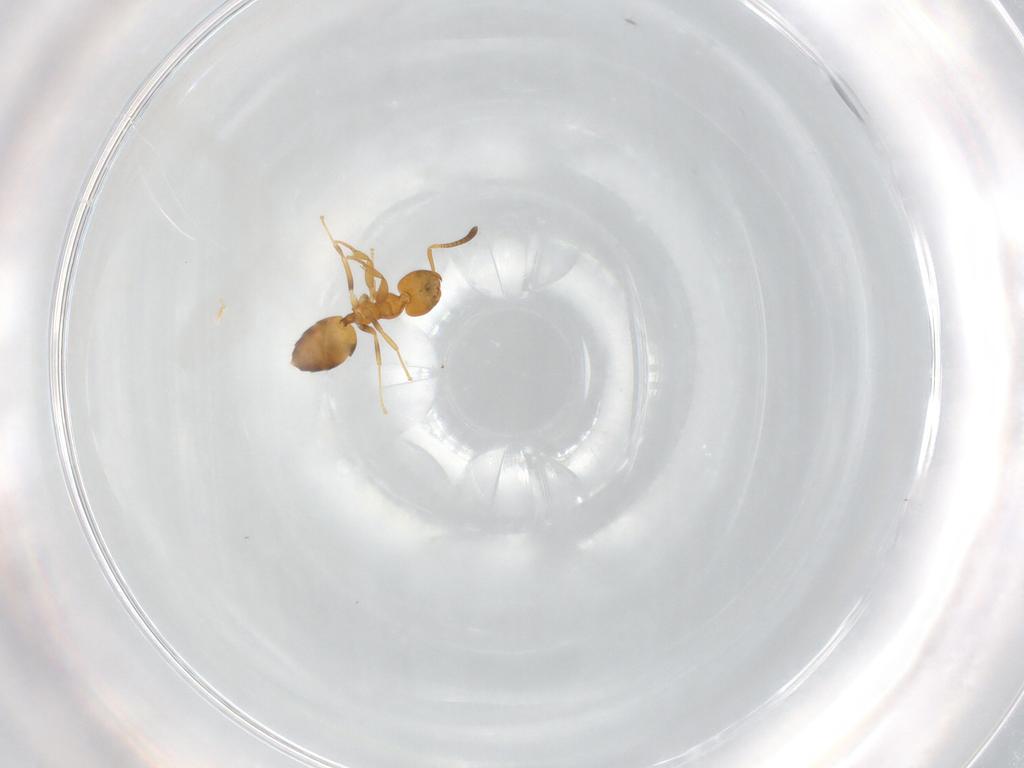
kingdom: Animalia
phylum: Arthropoda
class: Insecta
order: Hymenoptera
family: Formicidae
